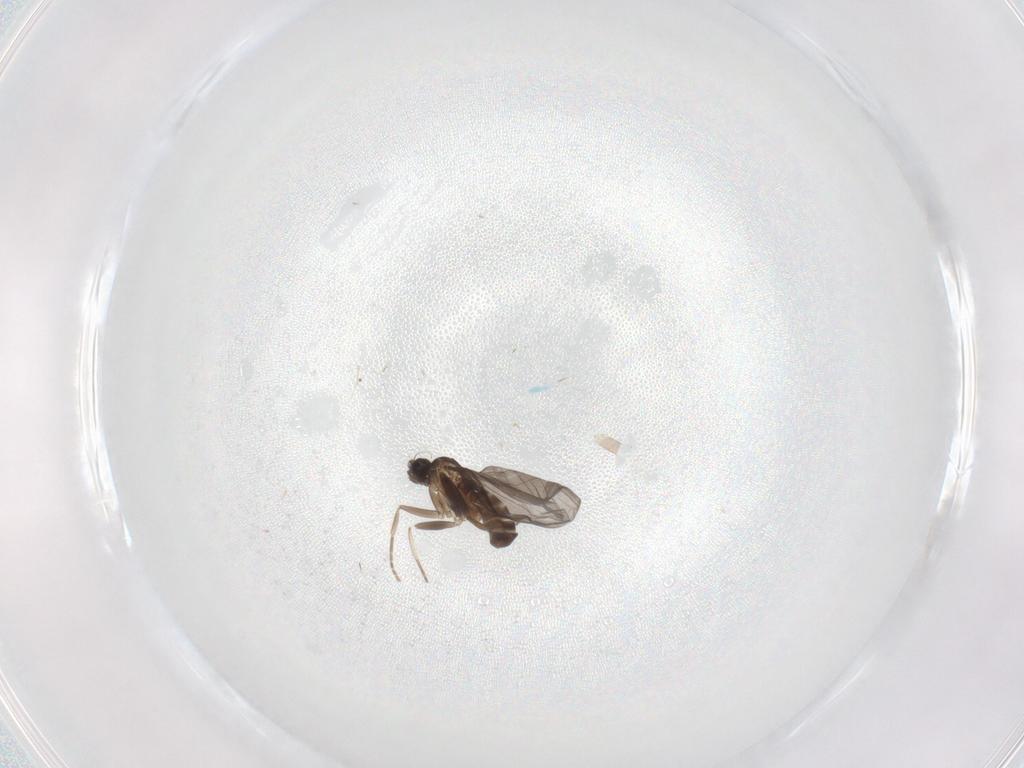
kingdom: Animalia
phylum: Arthropoda
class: Insecta
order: Diptera
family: Chironomidae
